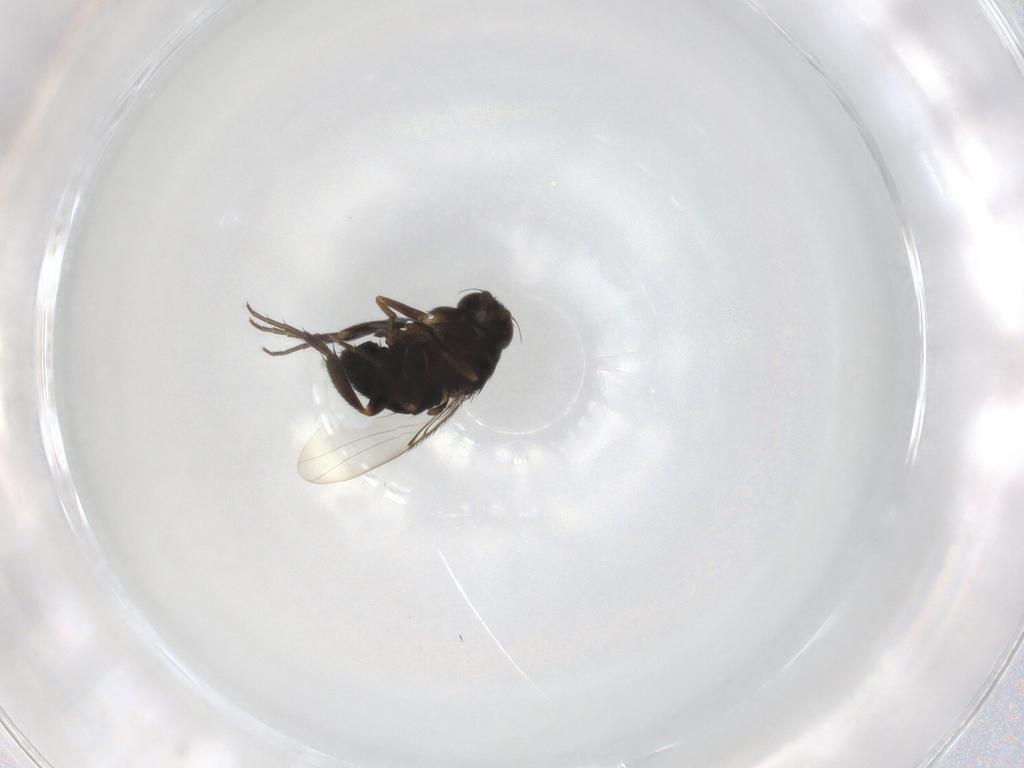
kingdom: Animalia
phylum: Arthropoda
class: Insecta
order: Diptera
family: Phoridae
